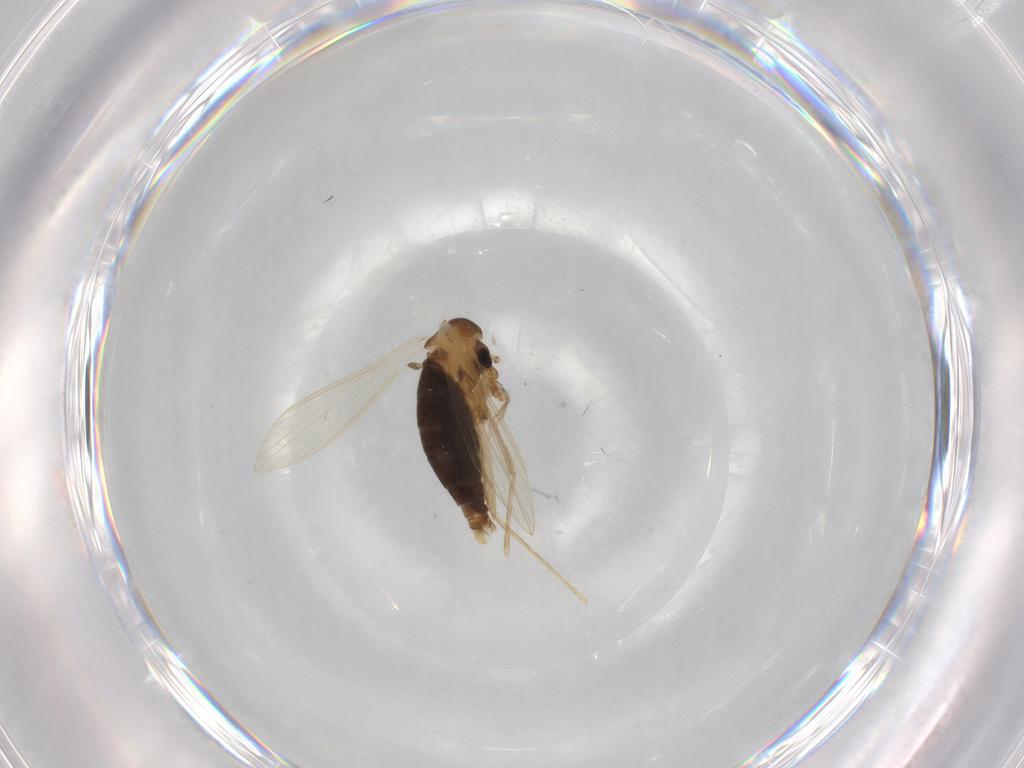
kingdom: Animalia
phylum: Arthropoda
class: Insecta
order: Diptera
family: Psychodidae
